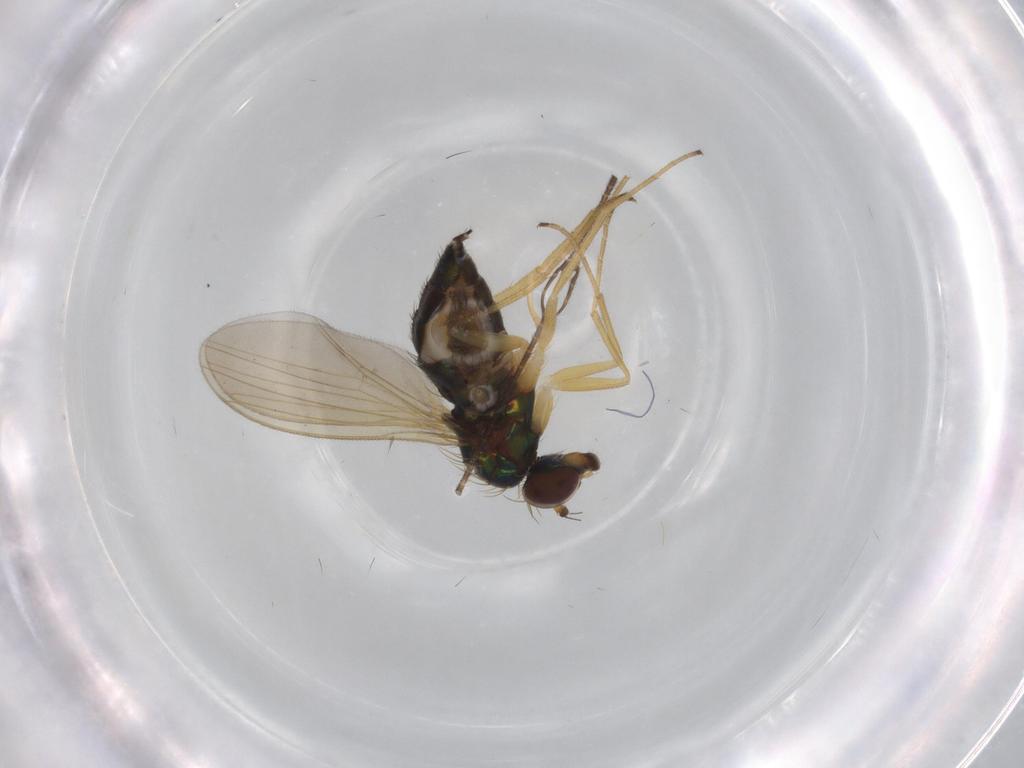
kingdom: Animalia
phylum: Arthropoda
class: Insecta
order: Diptera
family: Dolichopodidae
